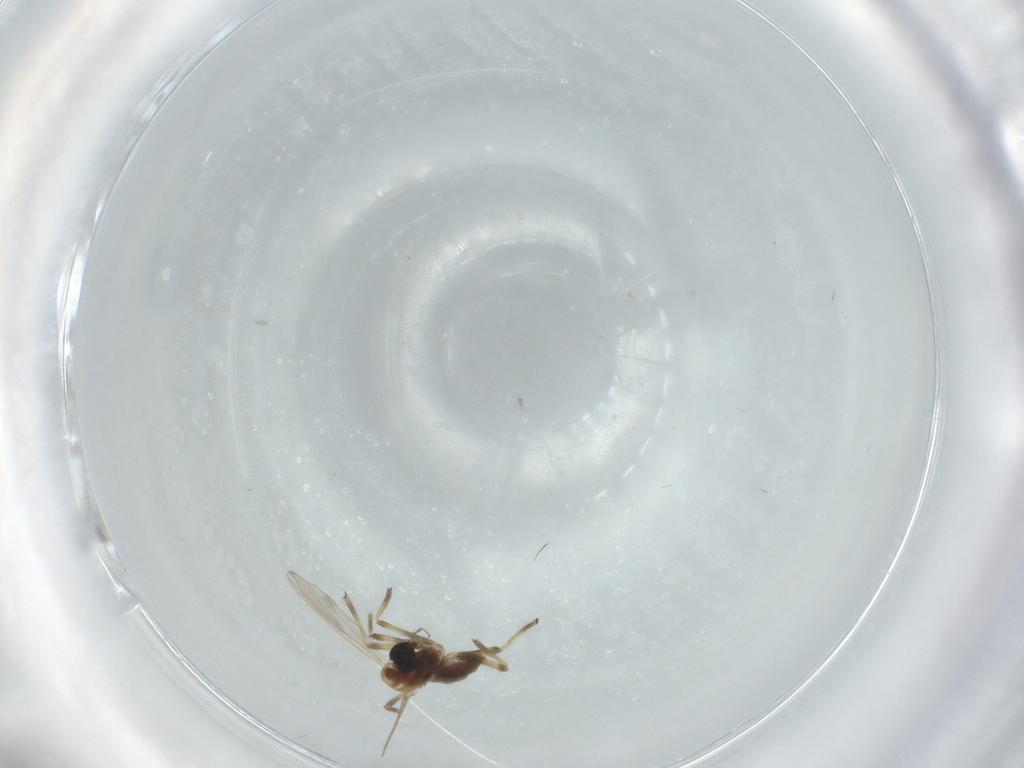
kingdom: Animalia
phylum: Arthropoda
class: Insecta
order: Diptera
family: Chironomidae
